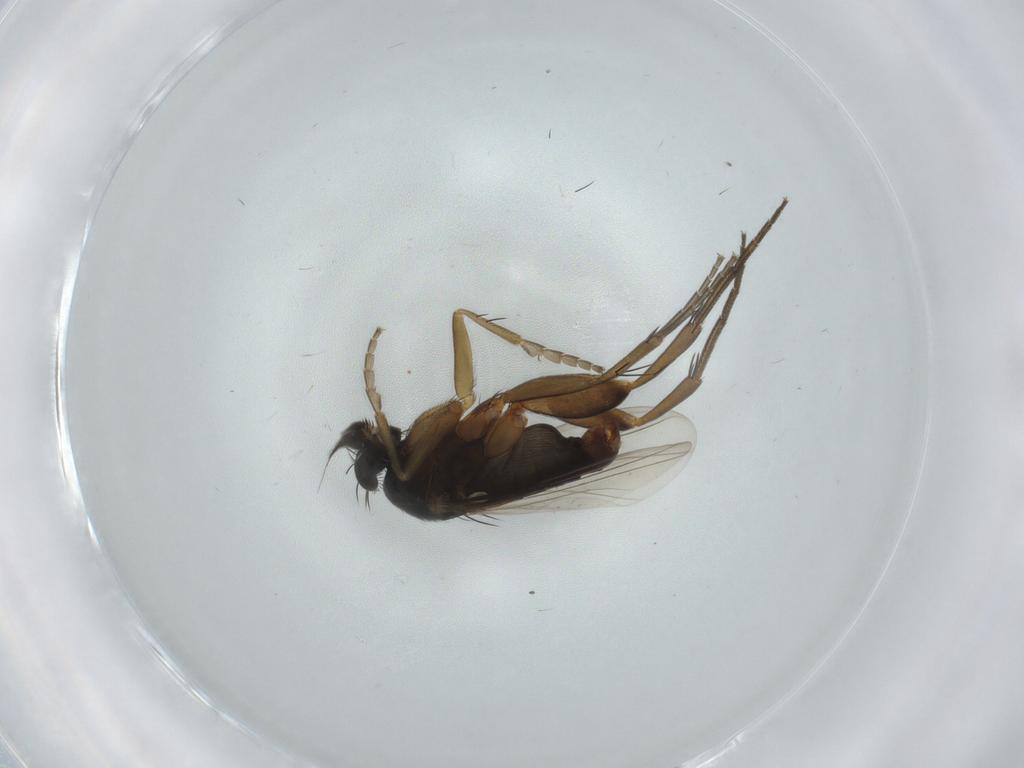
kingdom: Animalia
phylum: Arthropoda
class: Insecta
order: Diptera
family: Phoridae
